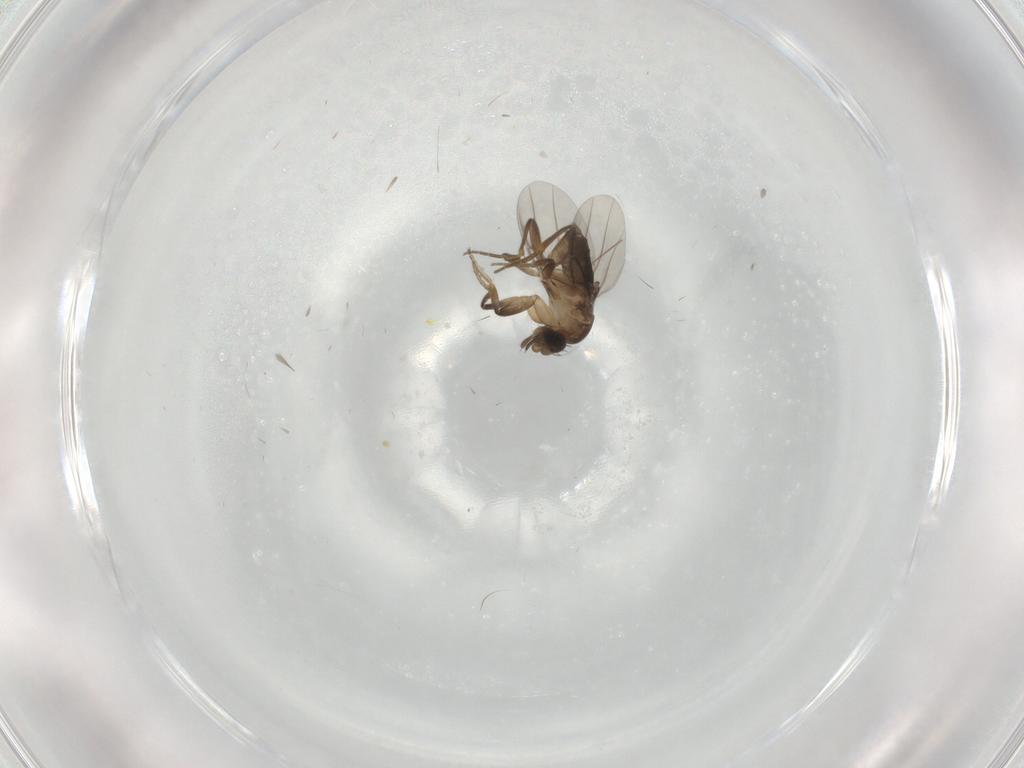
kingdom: Animalia
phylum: Arthropoda
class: Insecta
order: Diptera
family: Phoridae
